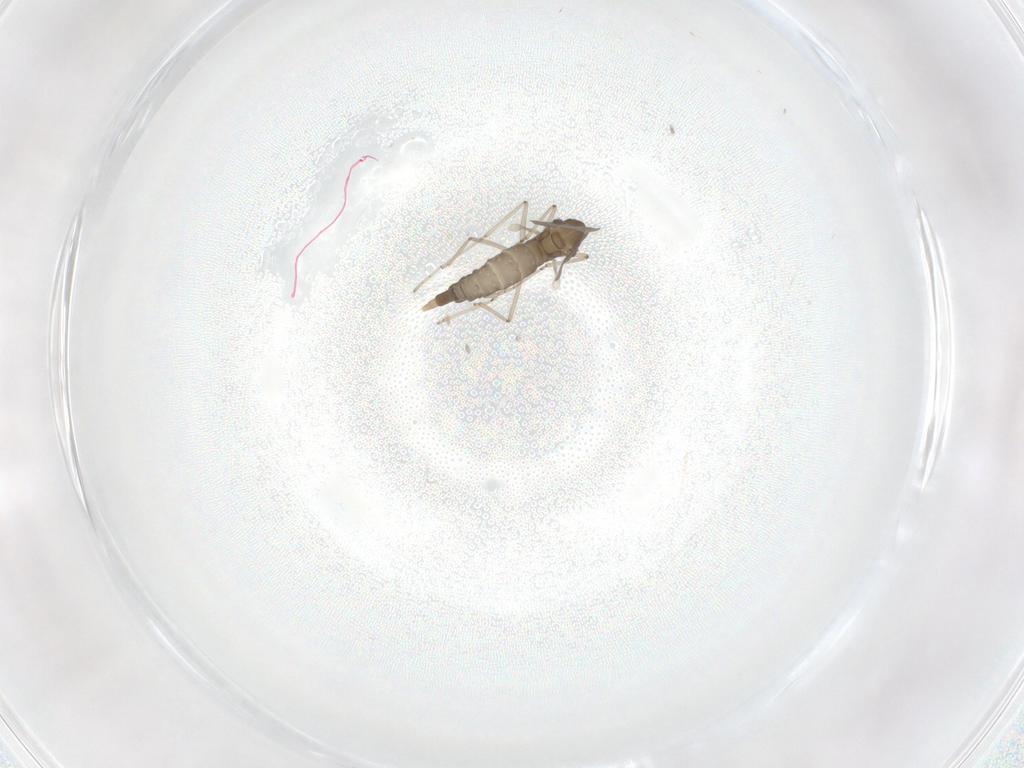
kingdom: Animalia
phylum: Arthropoda
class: Insecta
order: Diptera
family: Cecidomyiidae
